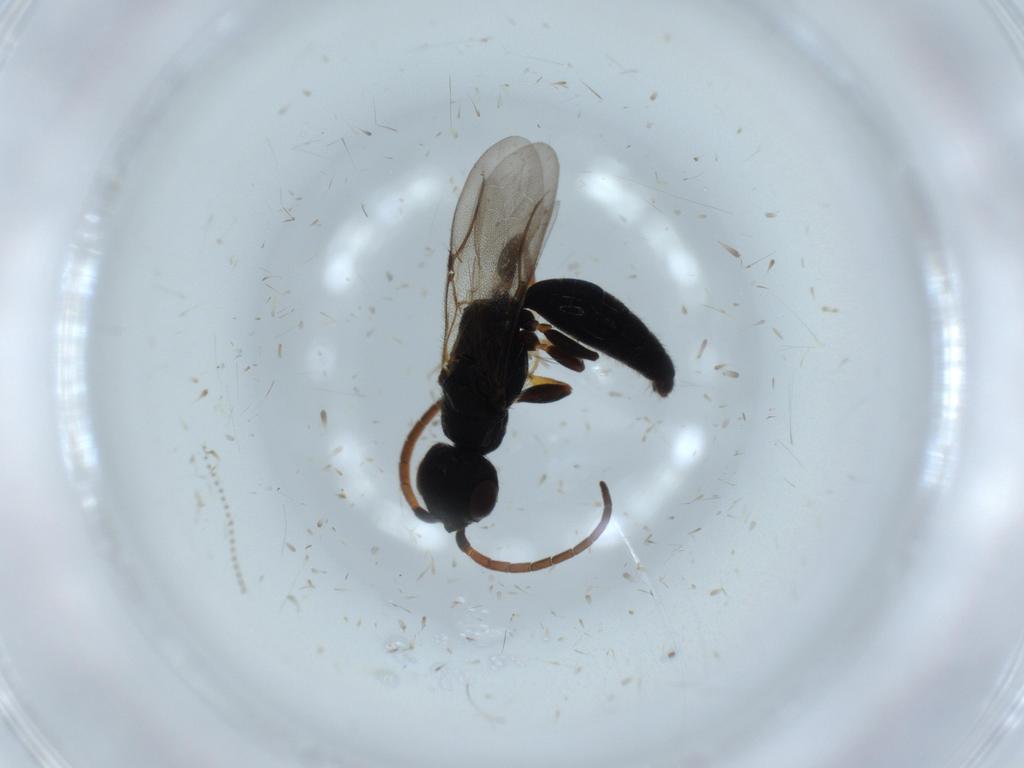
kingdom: Animalia
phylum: Arthropoda
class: Insecta
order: Hymenoptera
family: Bethylidae
